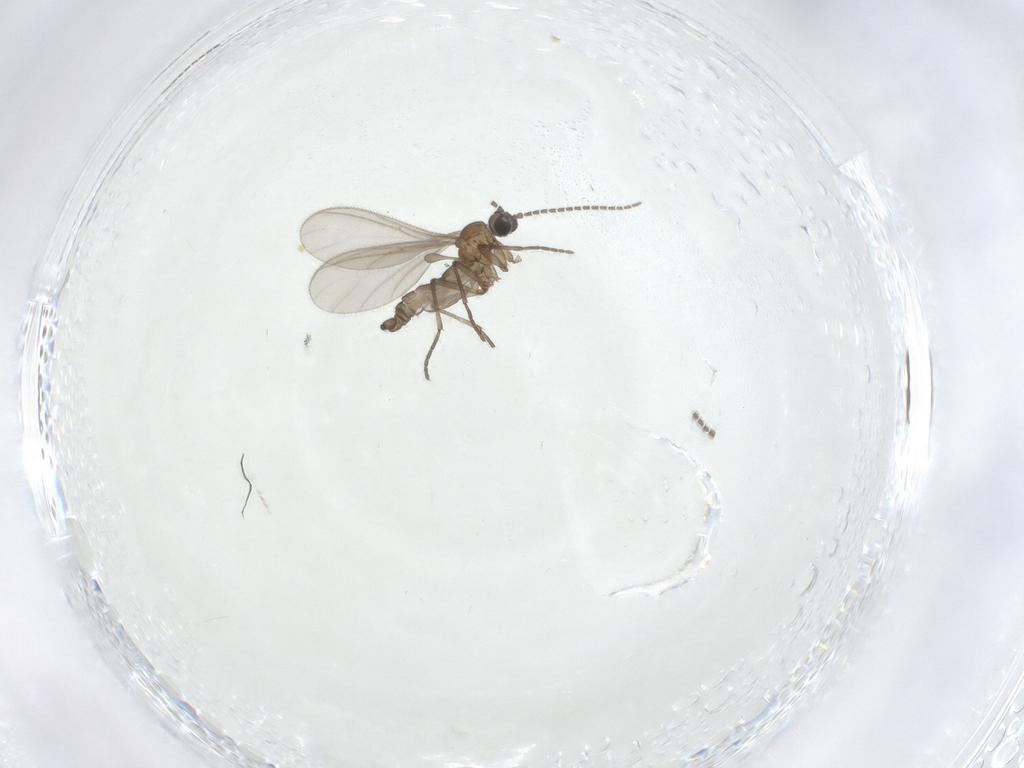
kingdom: Animalia
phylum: Arthropoda
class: Insecta
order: Diptera
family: Sciaridae
